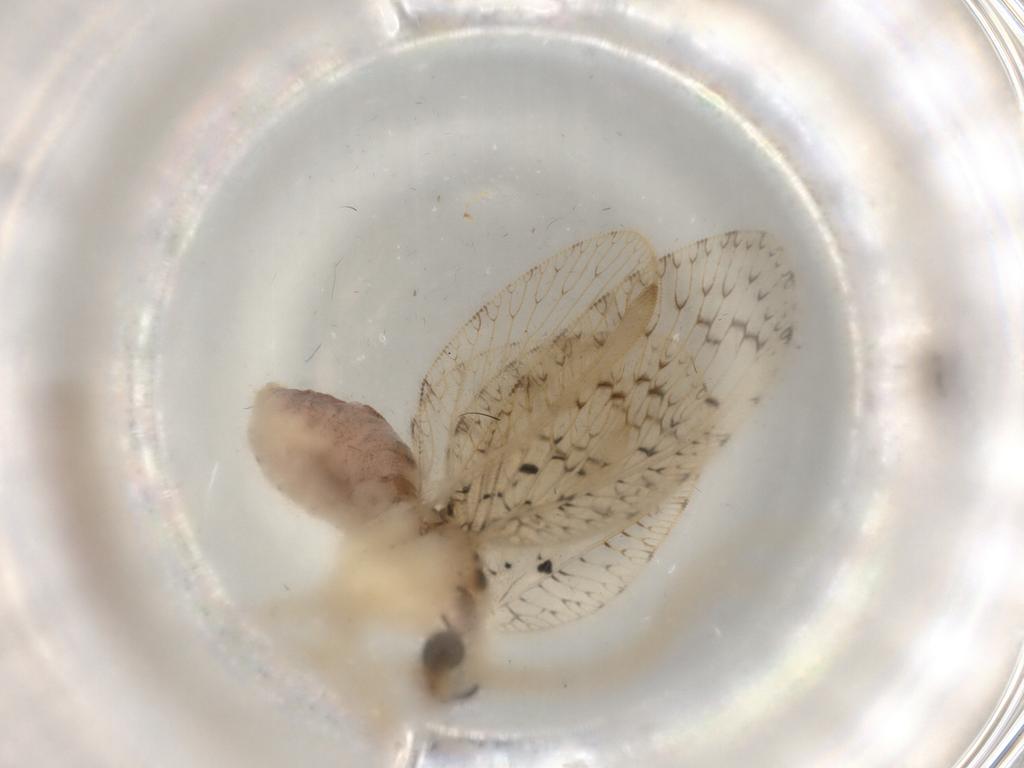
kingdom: Animalia
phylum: Arthropoda
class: Insecta
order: Neuroptera
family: Hemerobiidae
